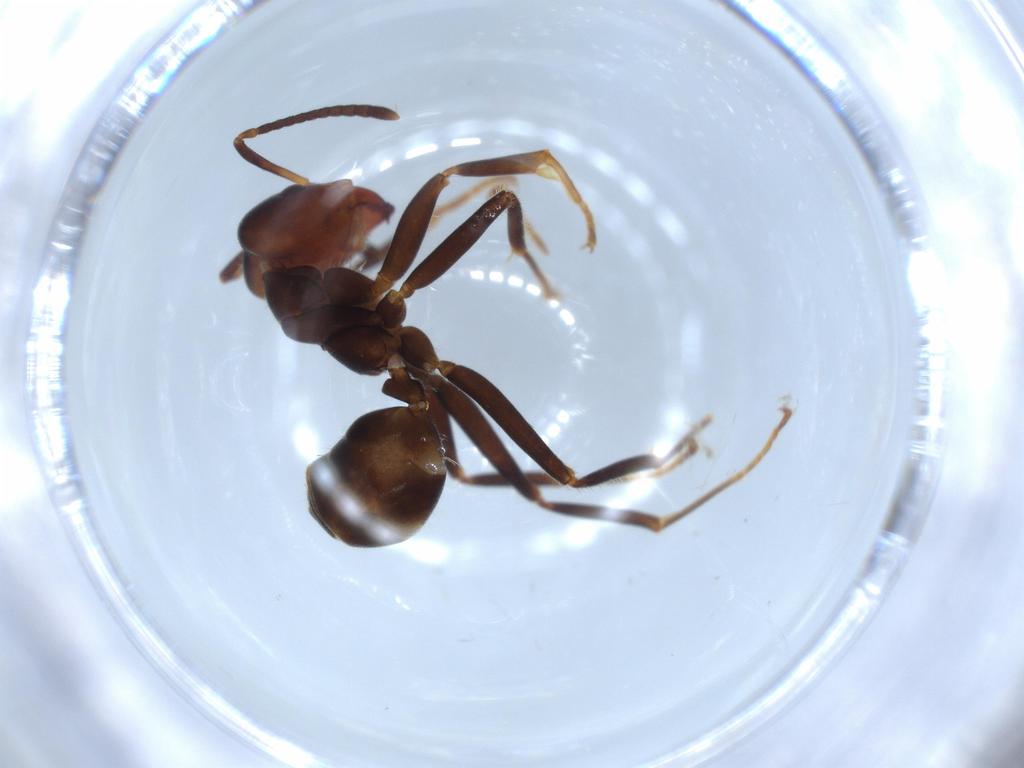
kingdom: Animalia
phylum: Arthropoda
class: Insecta
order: Hymenoptera
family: Formicidae
